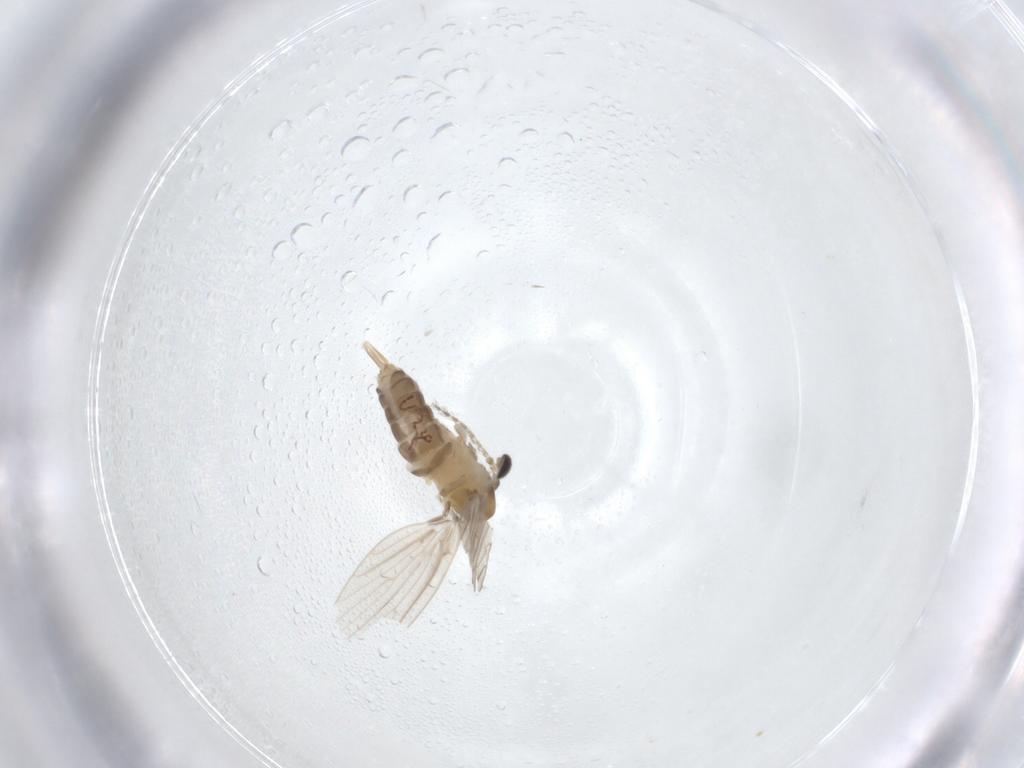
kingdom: Animalia
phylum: Arthropoda
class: Insecta
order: Diptera
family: Psychodidae
